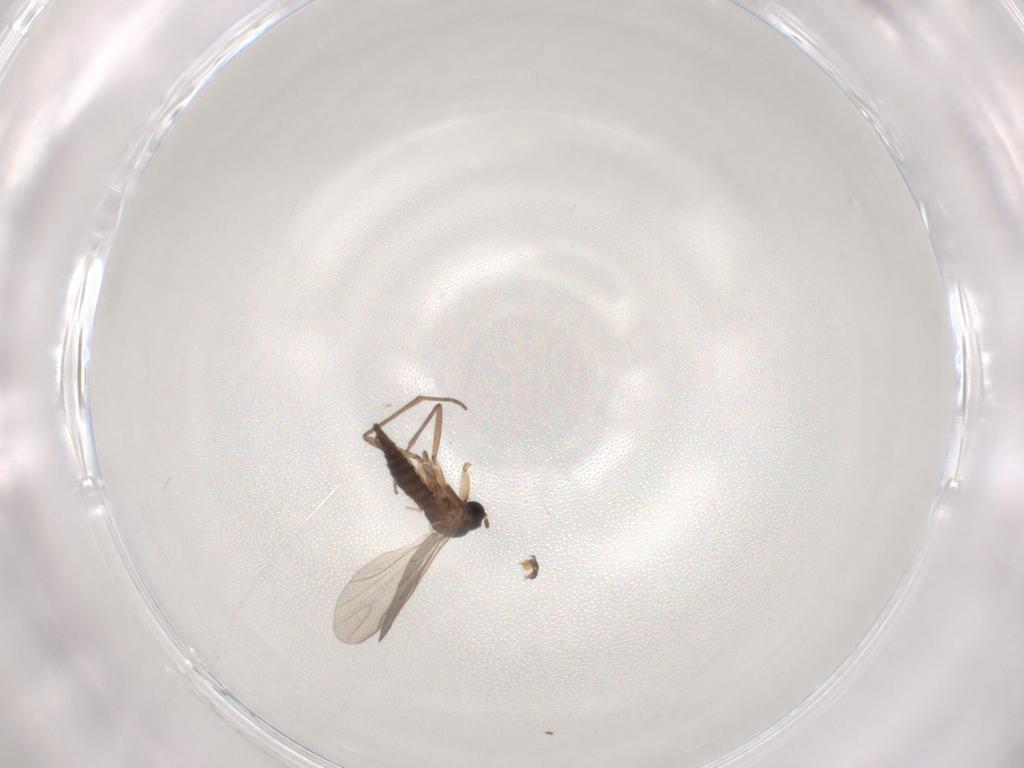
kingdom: Animalia
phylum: Arthropoda
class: Insecta
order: Diptera
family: Sciaridae
